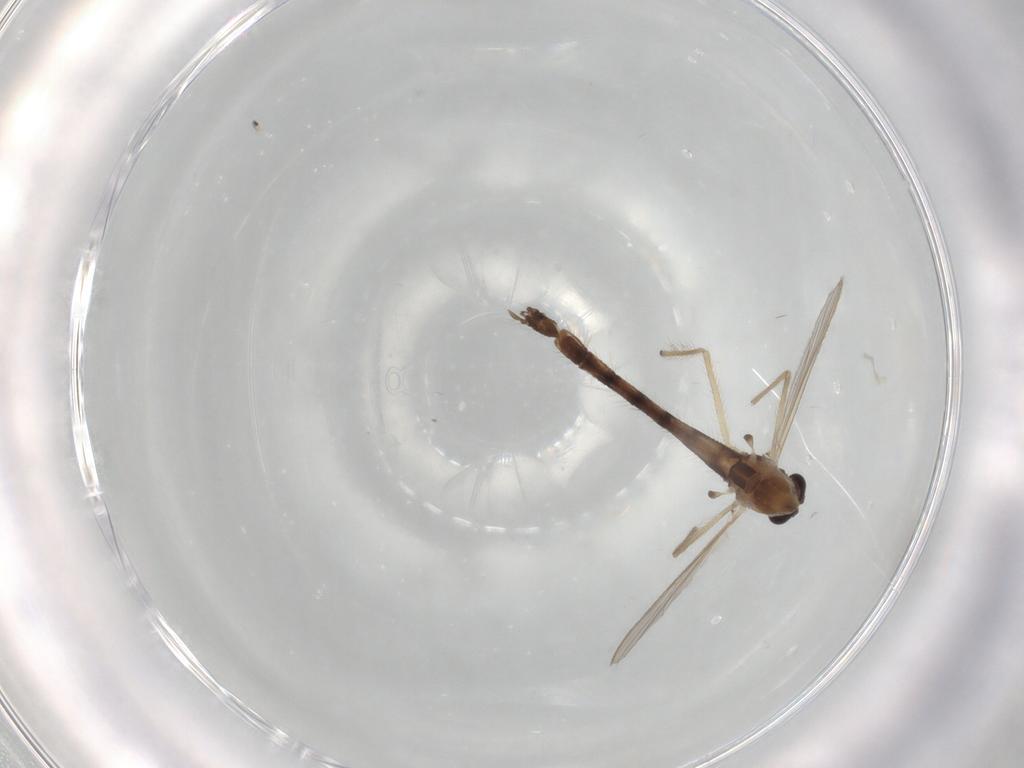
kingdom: Animalia
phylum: Arthropoda
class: Insecta
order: Diptera
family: Chironomidae
